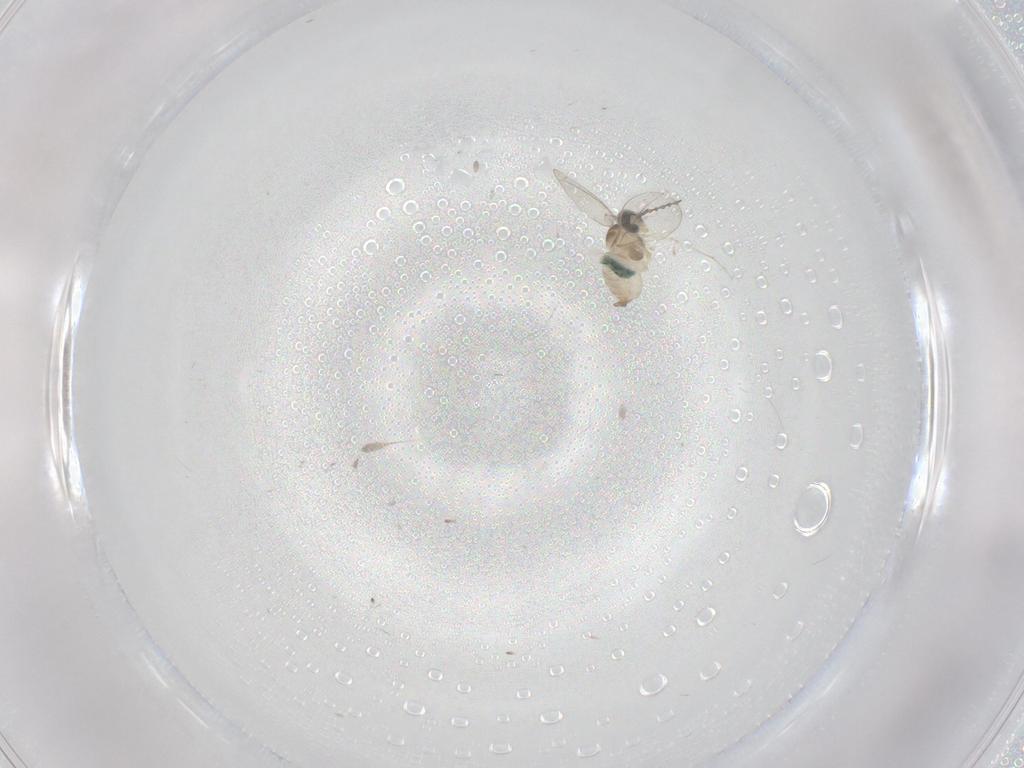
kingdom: Animalia
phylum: Arthropoda
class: Insecta
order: Diptera
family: Cecidomyiidae
